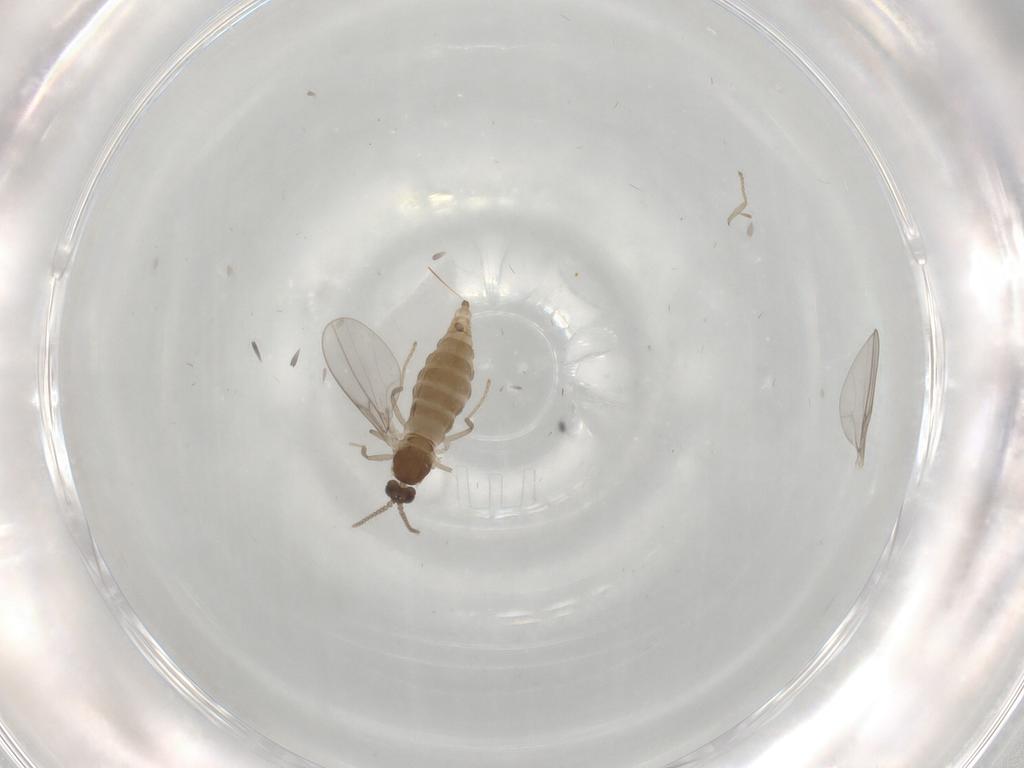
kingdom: Animalia
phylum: Arthropoda
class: Insecta
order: Diptera
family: Cecidomyiidae
